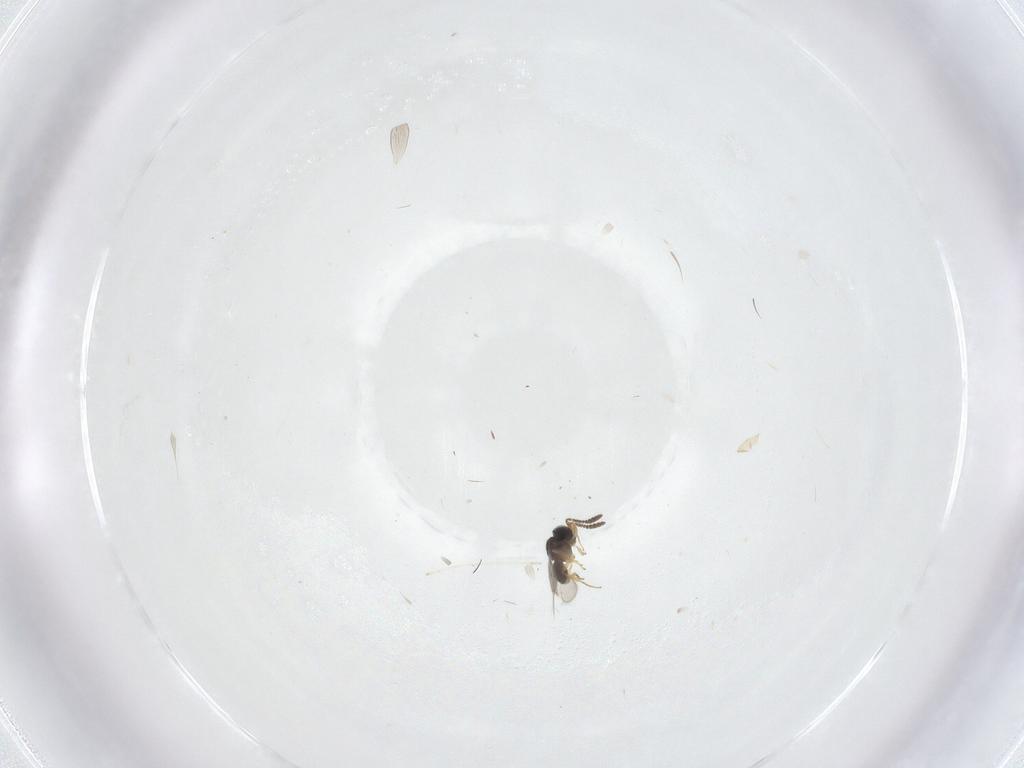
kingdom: Animalia
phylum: Arthropoda
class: Insecta
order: Hymenoptera
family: Scelionidae
